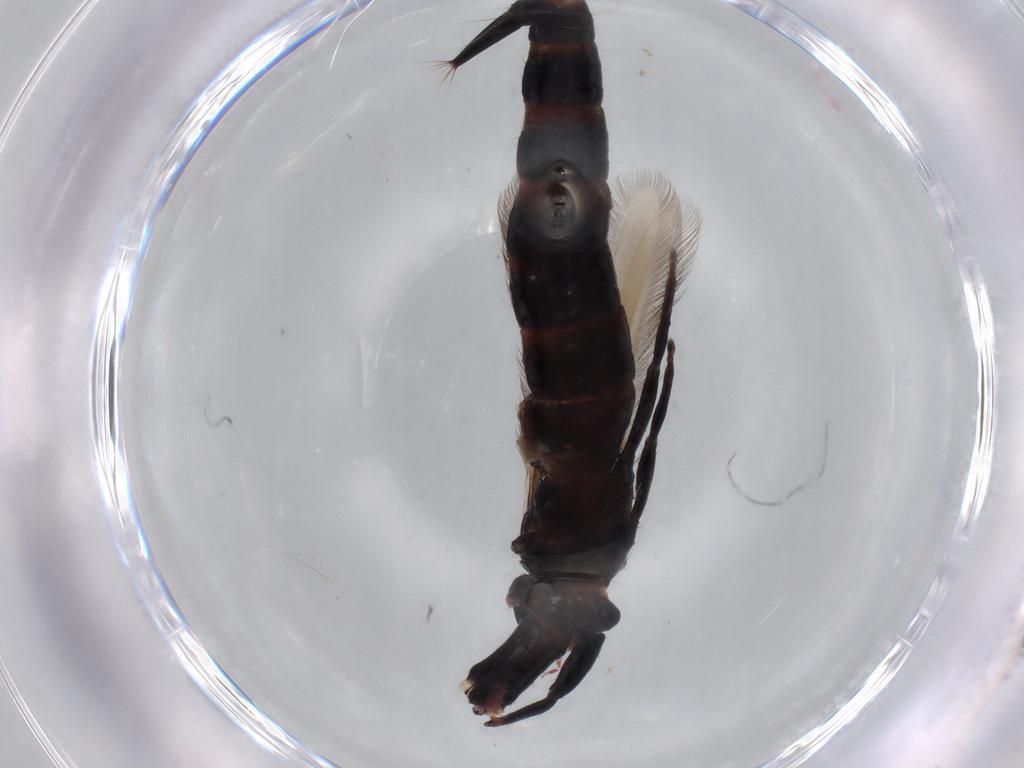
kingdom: Animalia
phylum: Arthropoda
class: Insecta
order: Thysanoptera
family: Phlaeothripidae
